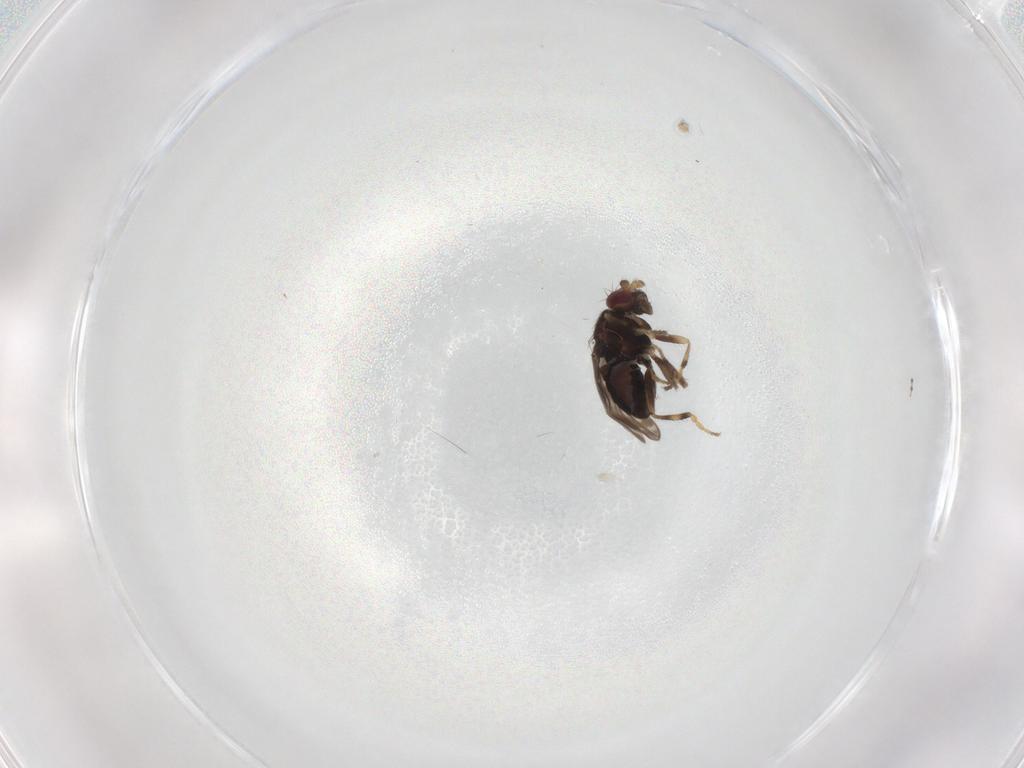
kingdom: Animalia
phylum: Arthropoda
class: Insecta
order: Diptera
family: Sphaeroceridae
